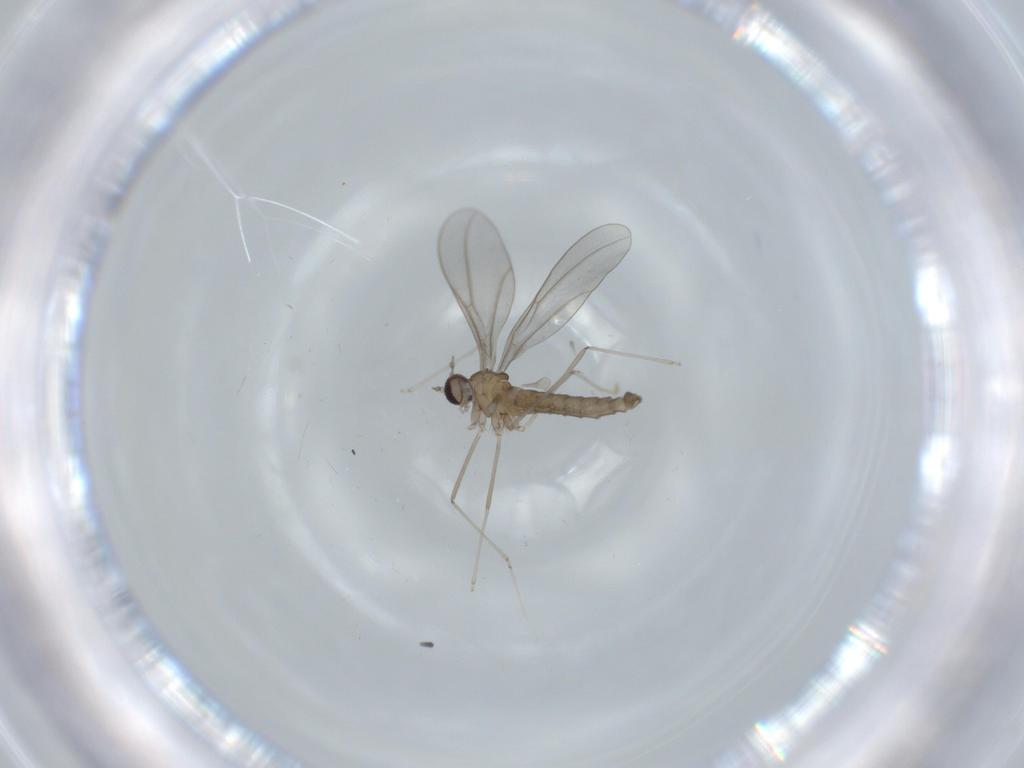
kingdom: Animalia
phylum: Arthropoda
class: Insecta
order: Diptera
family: Cecidomyiidae
